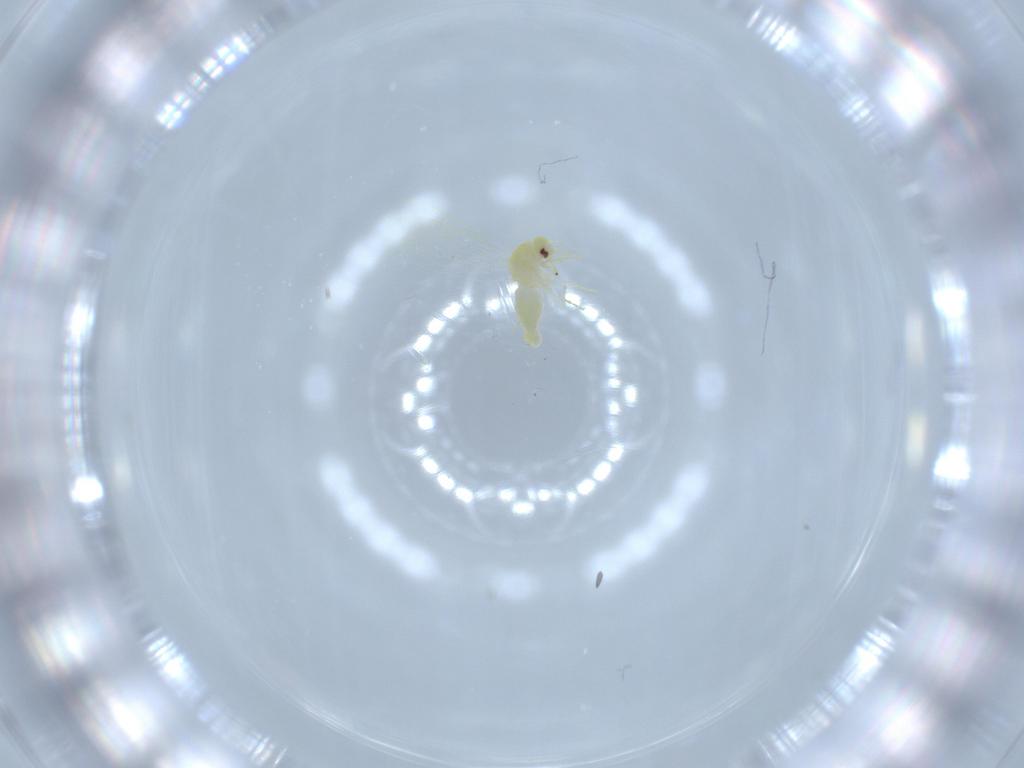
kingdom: Animalia
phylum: Arthropoda
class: Insecta
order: Hemiptera
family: Aleyrodidae
